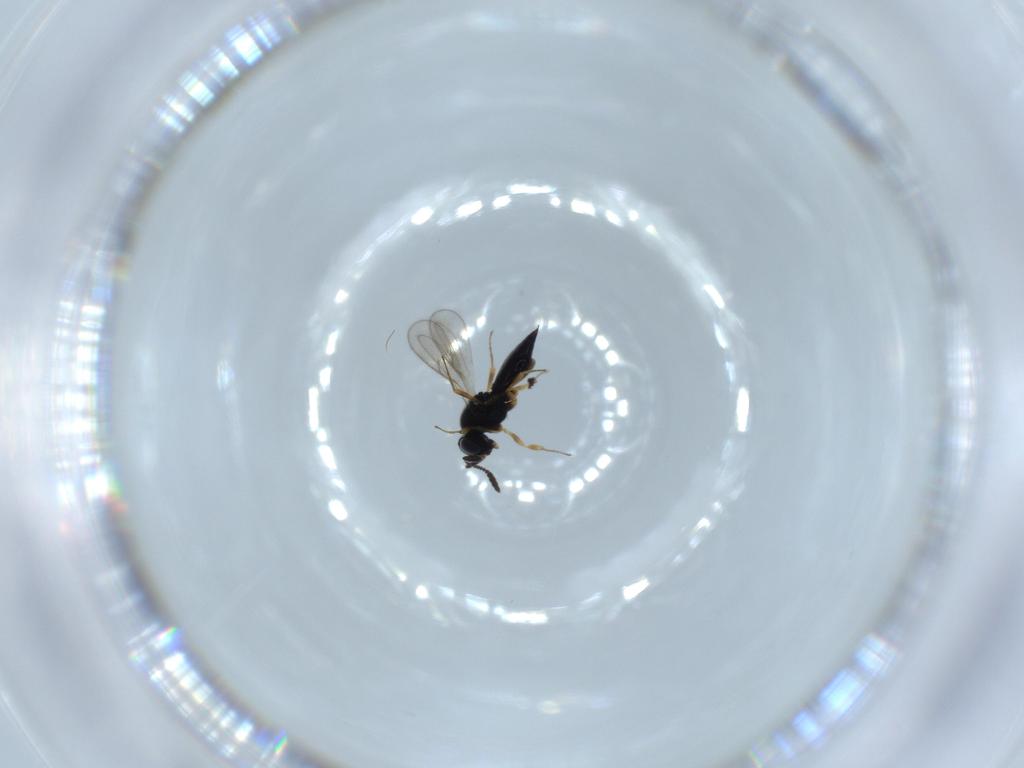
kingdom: Animalia
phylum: Arthropoda
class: Insecta
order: Hymenoptera
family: Scelionidae
